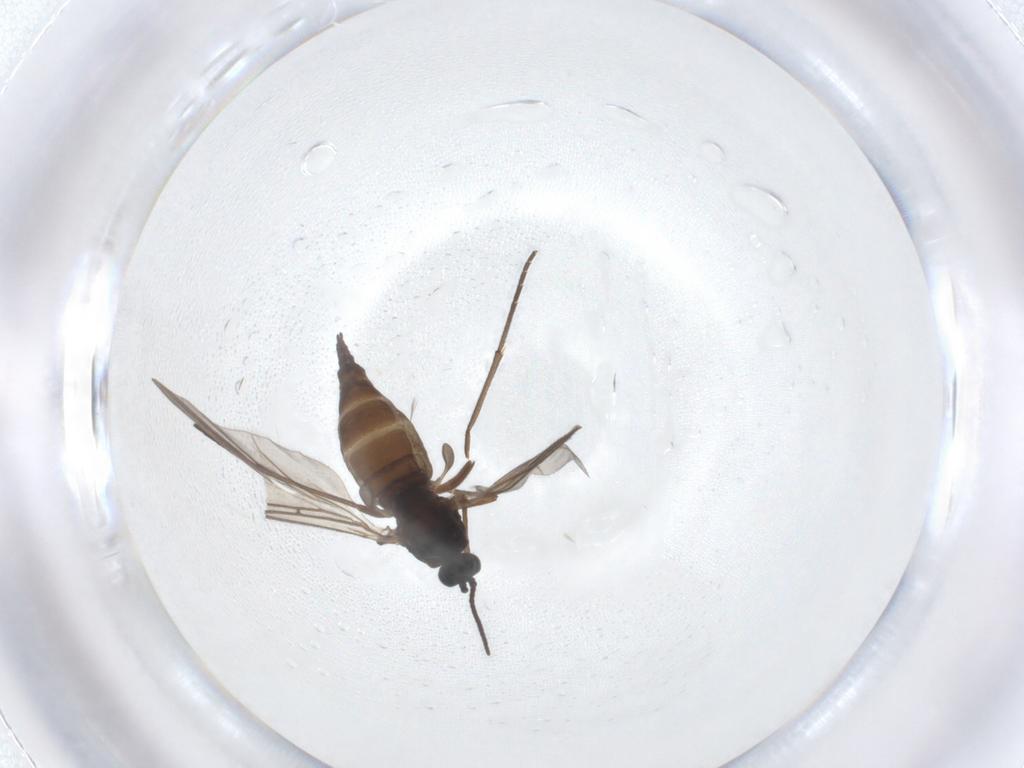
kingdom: Animalia
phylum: Arthropoda
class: Insecta
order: Diptera
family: Sciaridae
